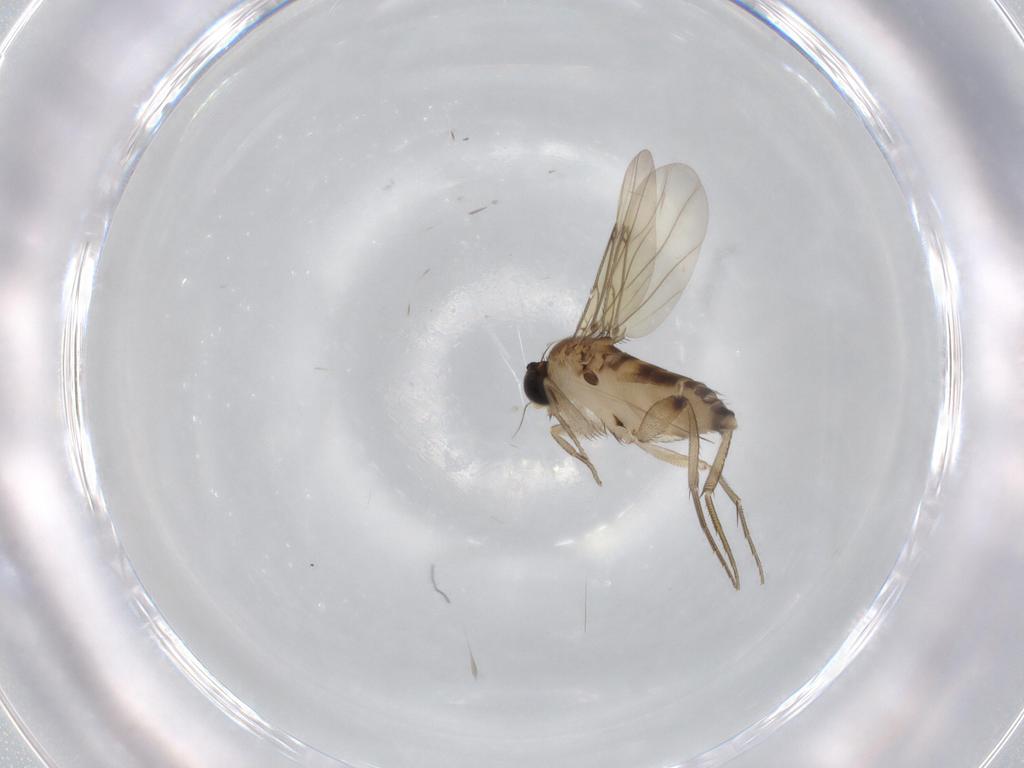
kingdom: Animalia
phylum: Arthropoda
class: Insecta
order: Diptera
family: Phoridae
